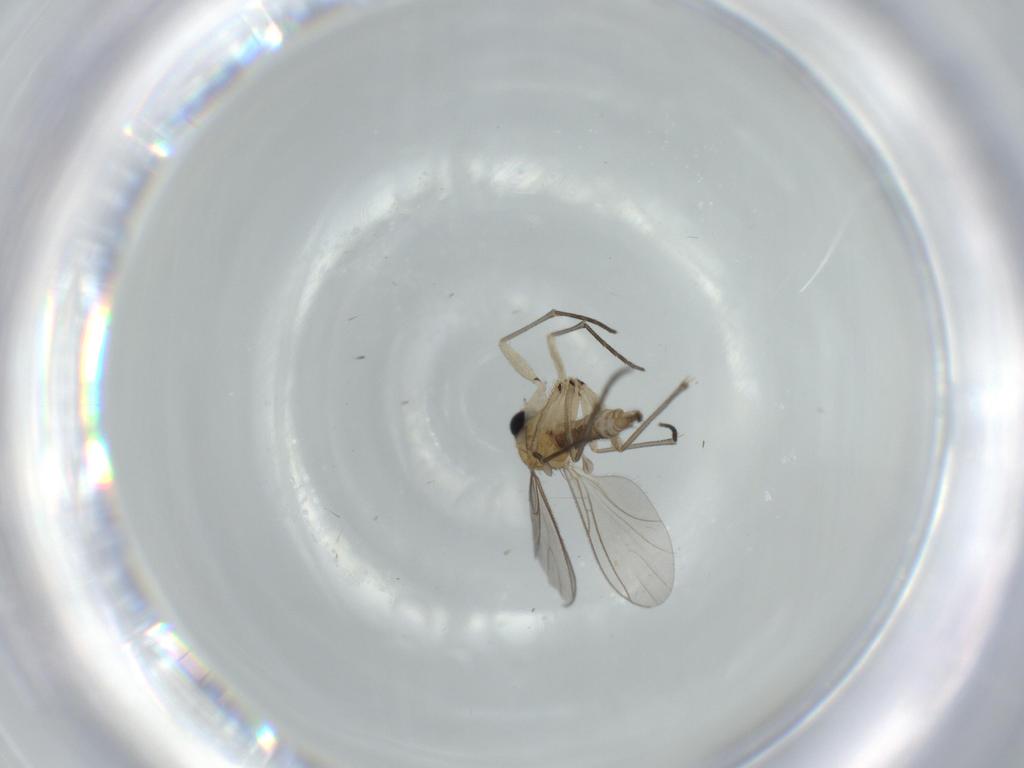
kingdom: Animalia
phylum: Arthropoda
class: Insecta
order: Diptera
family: Sciaridae
